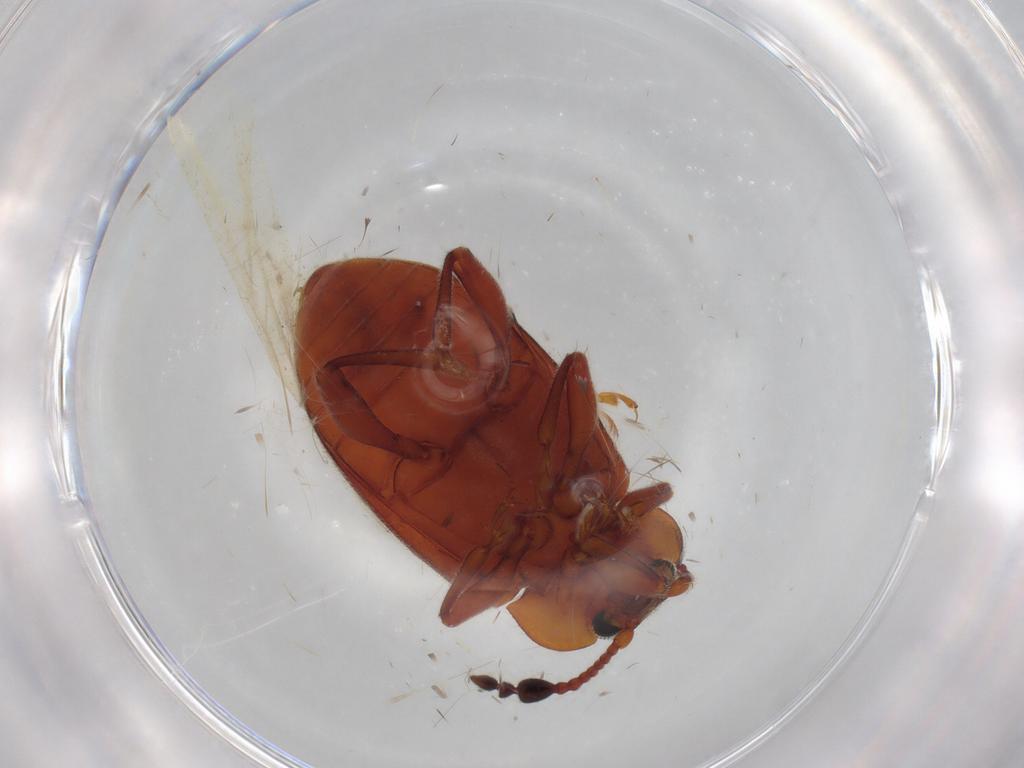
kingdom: Animalia
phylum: Arthropoda
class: Insecta
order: Coleoptera
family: Endomychidae
